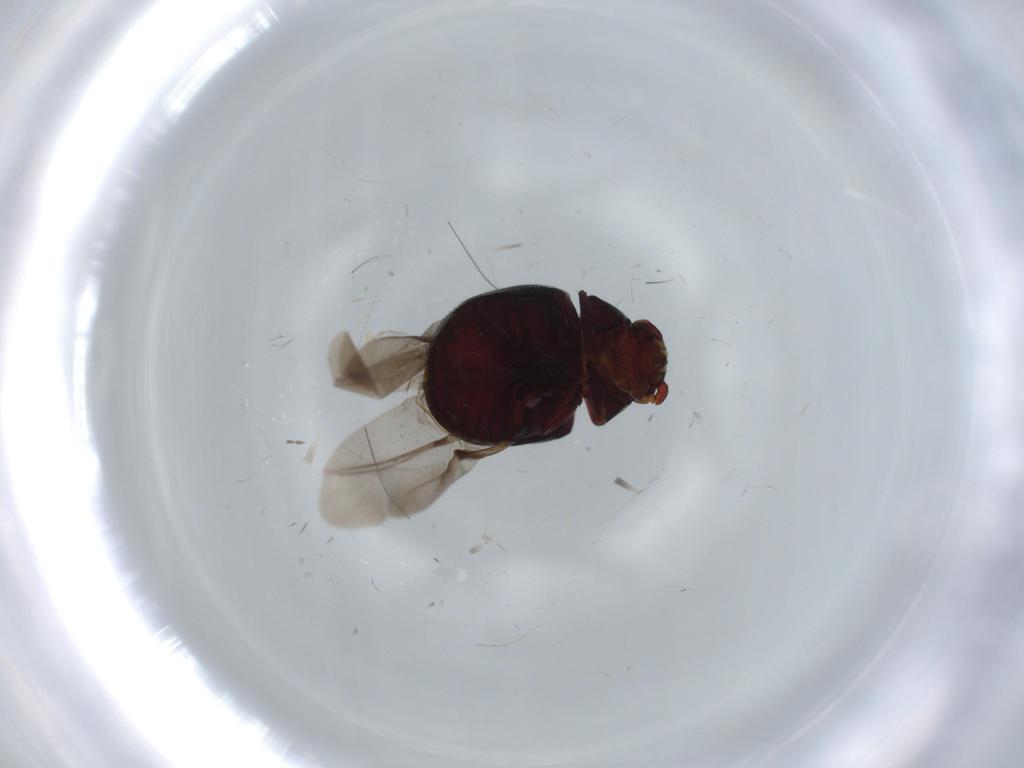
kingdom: Animalia
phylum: Arthropoda
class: Insecta
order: Coleoptera
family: Ptinidae
